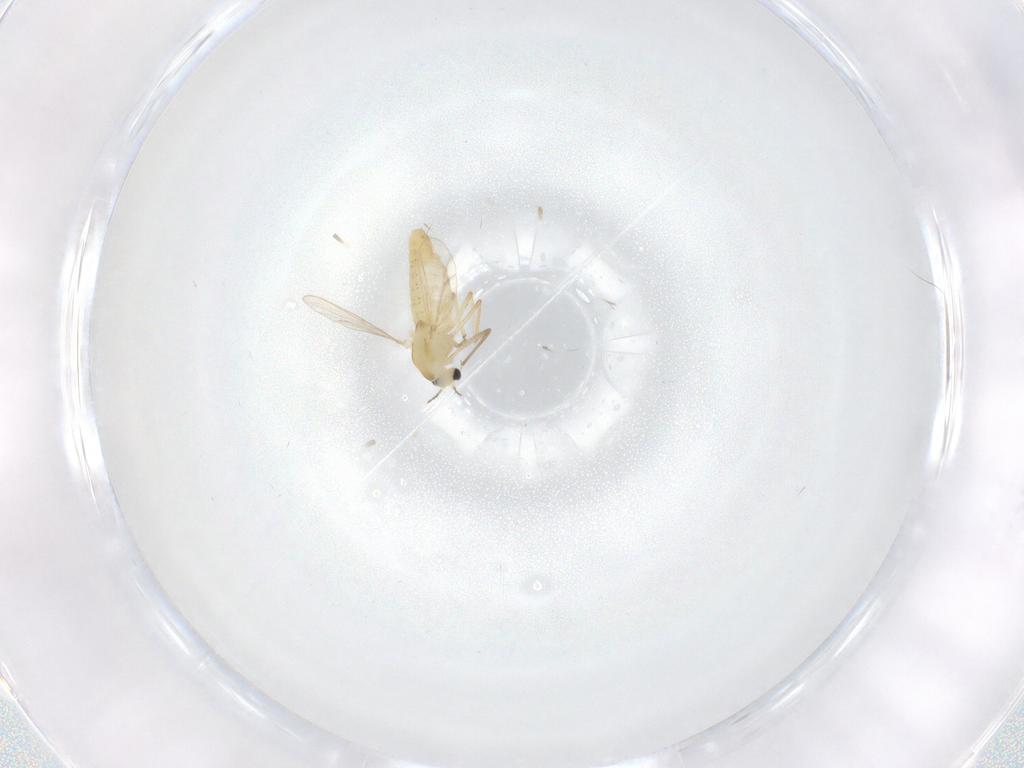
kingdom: Animalia
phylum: Arthropoda
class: Insecta
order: Diptera
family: Chironomidae
